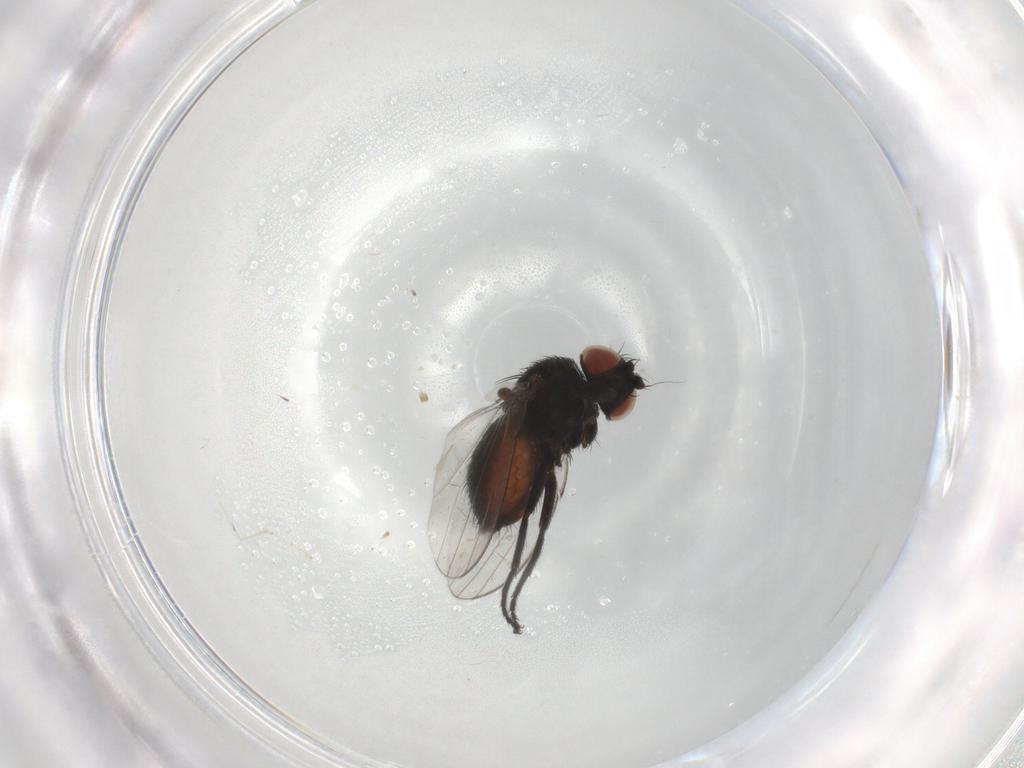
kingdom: Animalia
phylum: Arthropoda
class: Insecta
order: Diptera
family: Milichiidae
